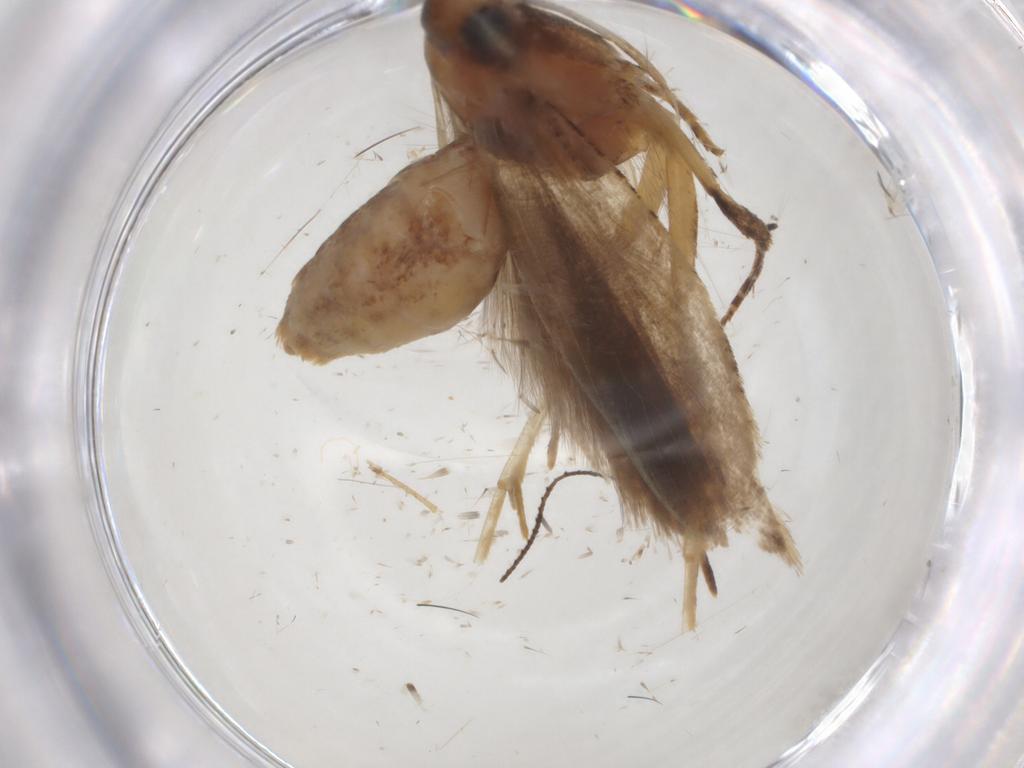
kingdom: Animalia
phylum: Arthropoda
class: Insecta
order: Lepidoptera
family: Gelechiidae
